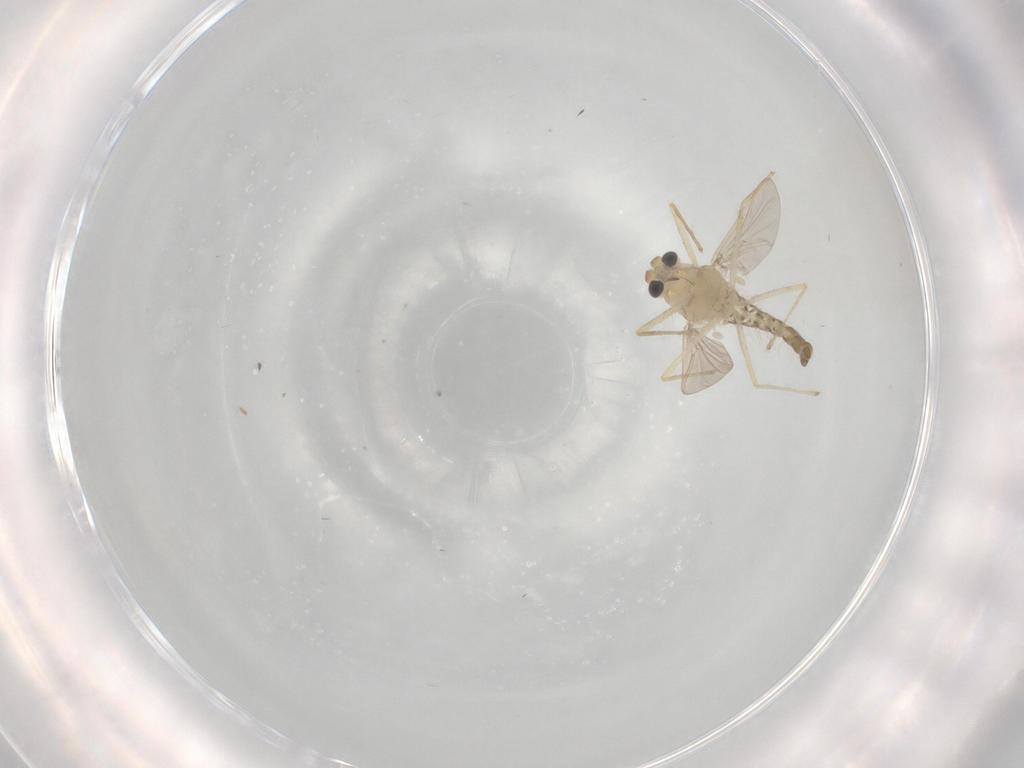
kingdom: Animalia
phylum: Arthropoda
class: Insecta
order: Diptera
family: Chironomidae
